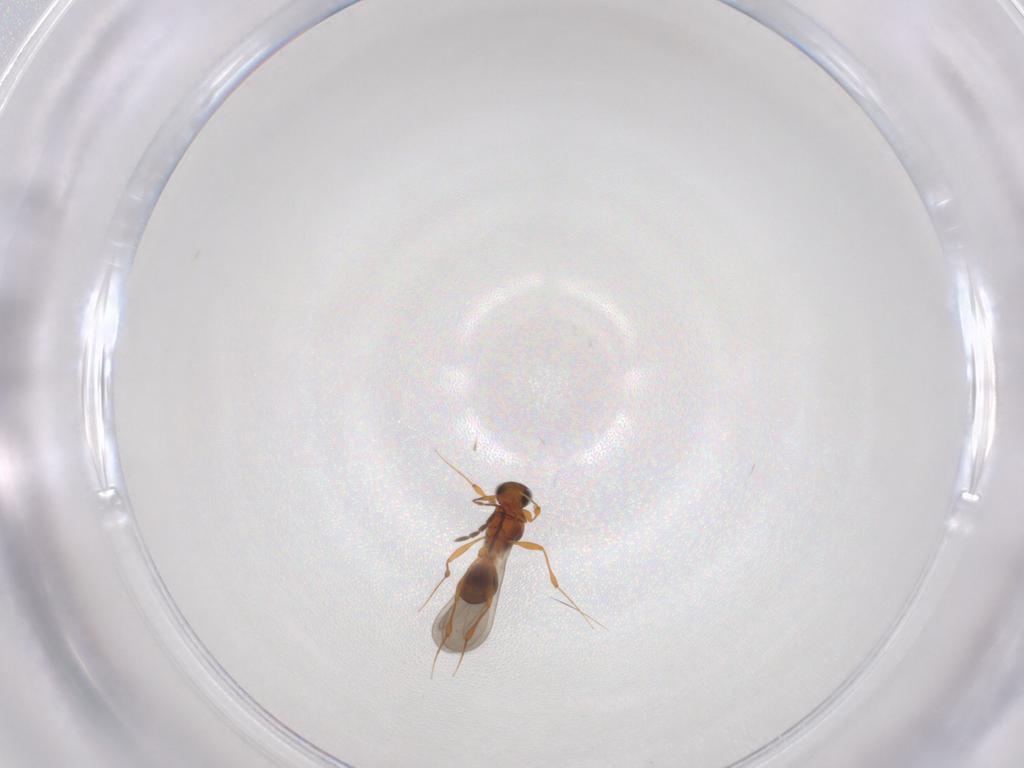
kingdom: Animalia
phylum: Arthropoda
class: Insecta
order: Hymenoptera
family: Platygastridae
